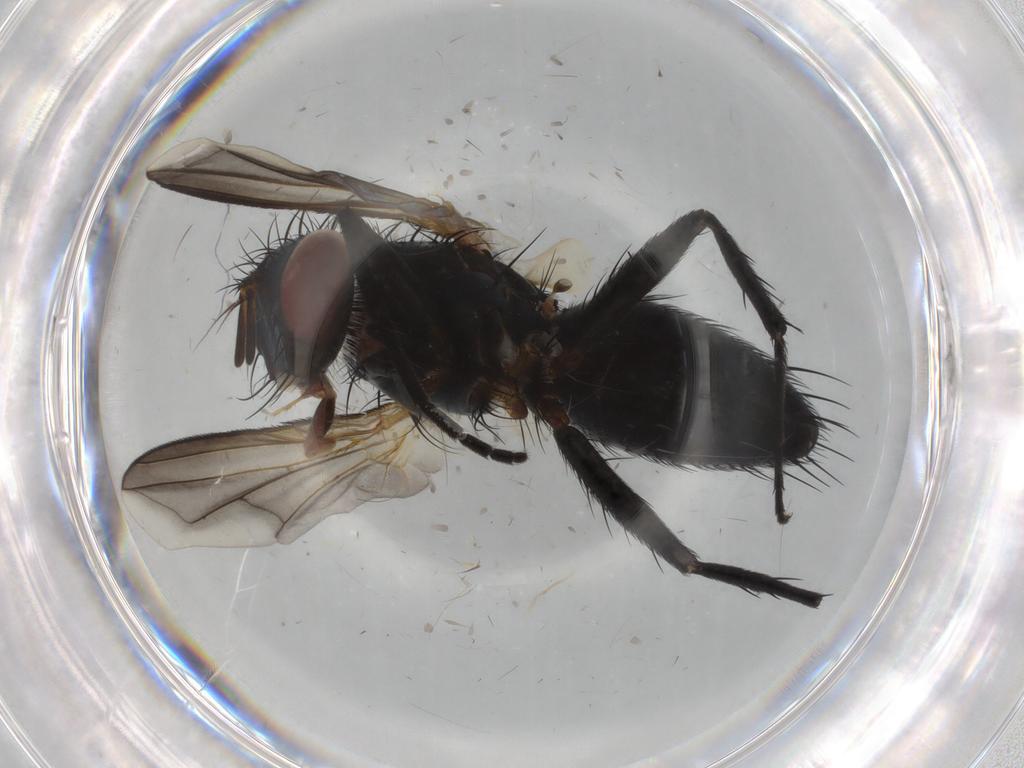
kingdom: Animalia
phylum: Arthropoda
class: Insecta
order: Diptera
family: Tachinidae
